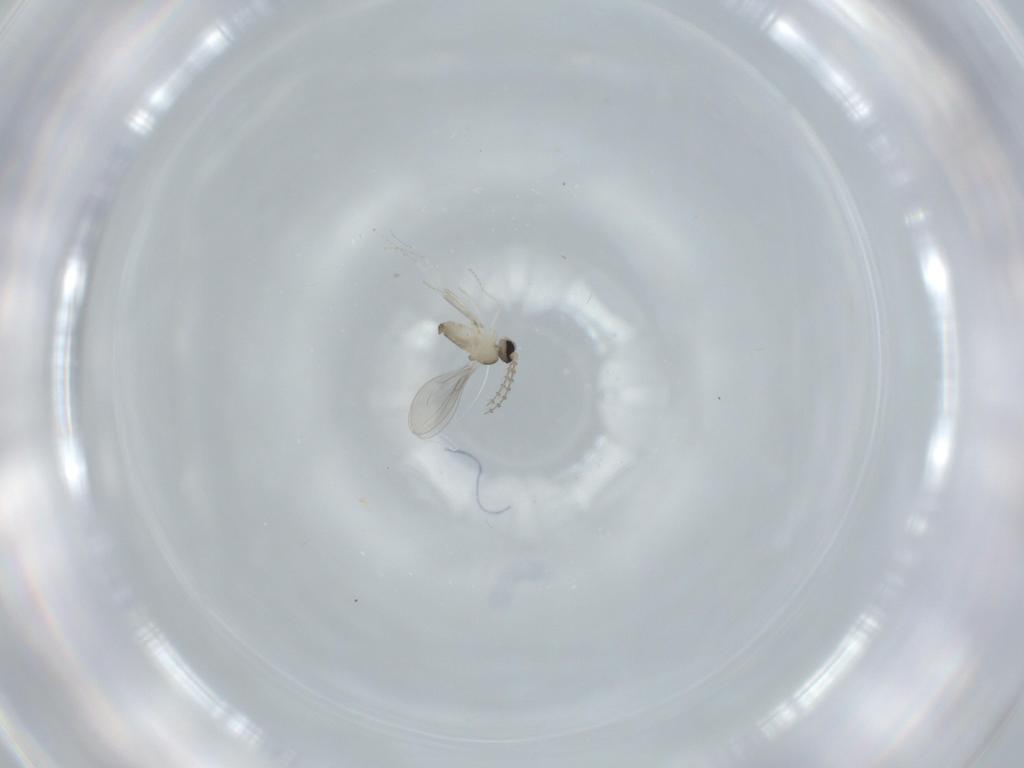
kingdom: Animalia
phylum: Arthropoda
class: Insecta
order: Diptera
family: Cecidomyiidae
